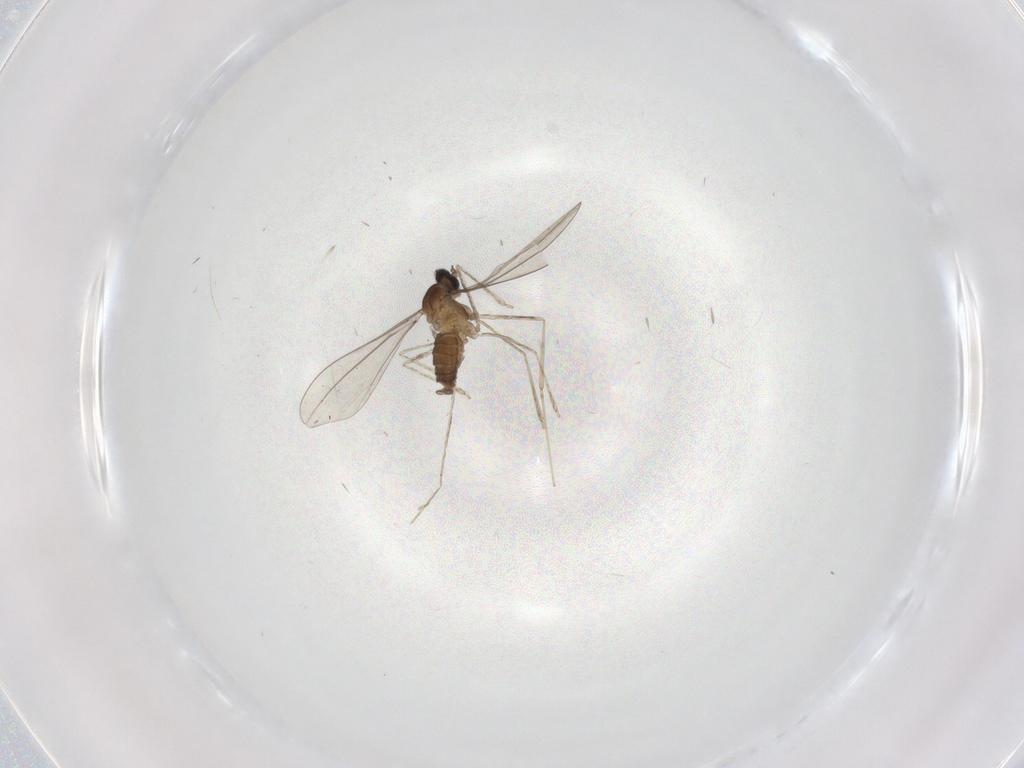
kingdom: Animalia
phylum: Arthropoda
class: Insecta
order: Diptera
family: Cecidomyiidae
